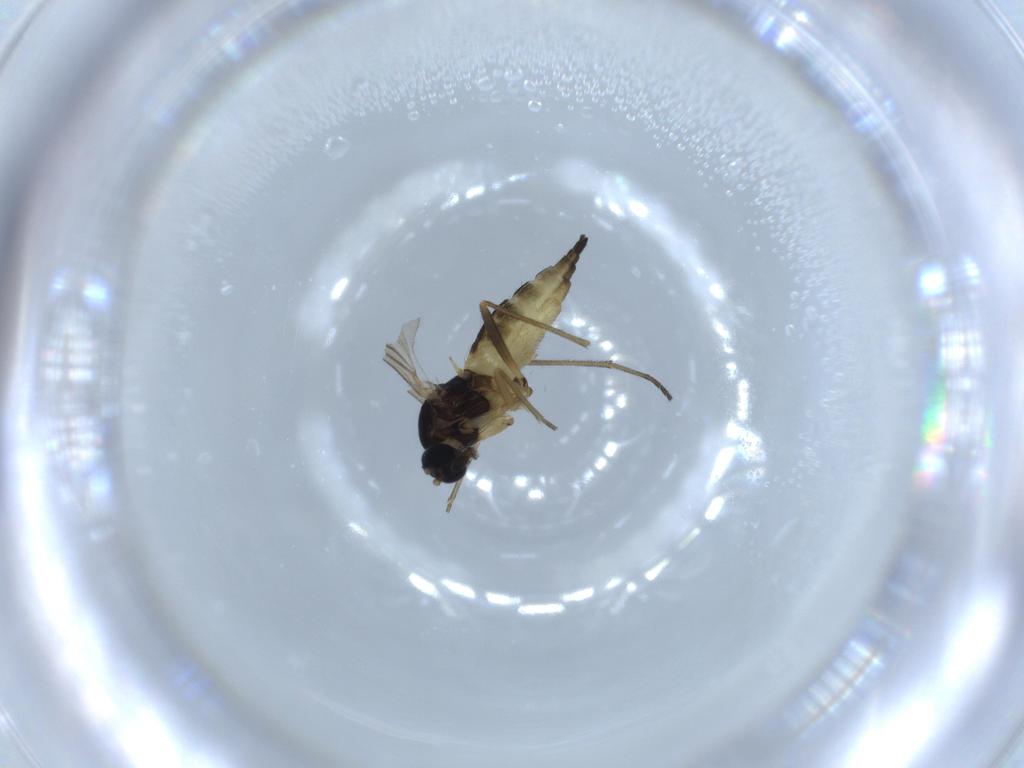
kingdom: Animalia
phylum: Arthropoda
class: Insecta
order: Diptera
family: Sciaridae
